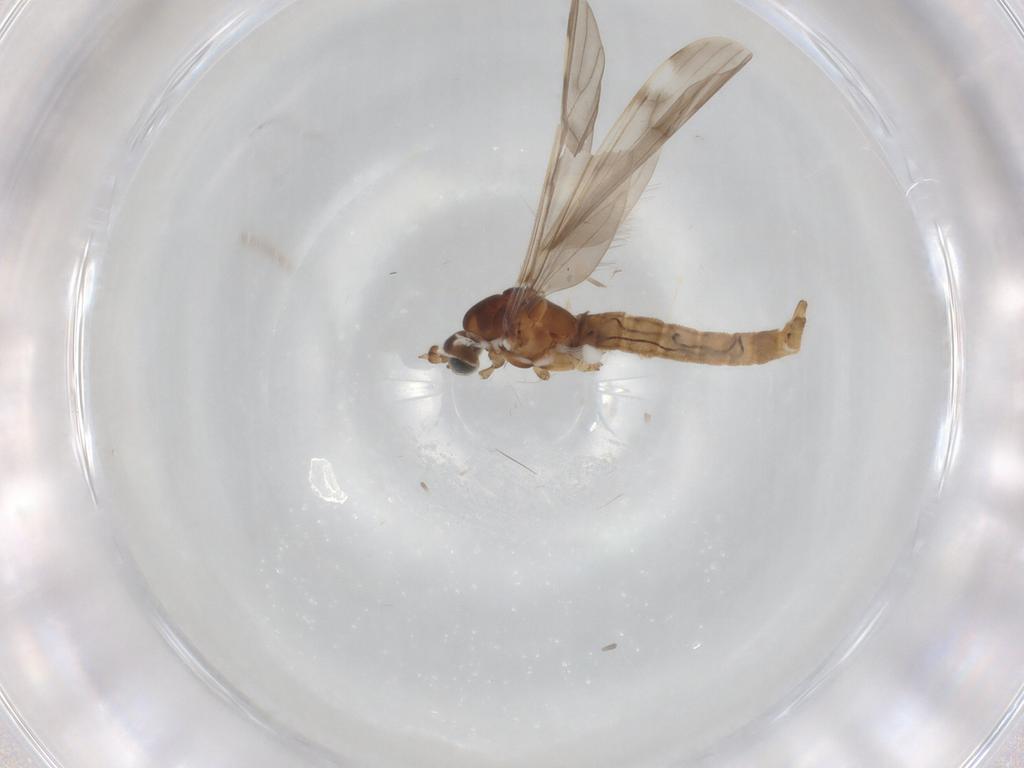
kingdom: Animalia
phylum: Arthropoda
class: Insecta
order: Diptera
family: Limoniidae
